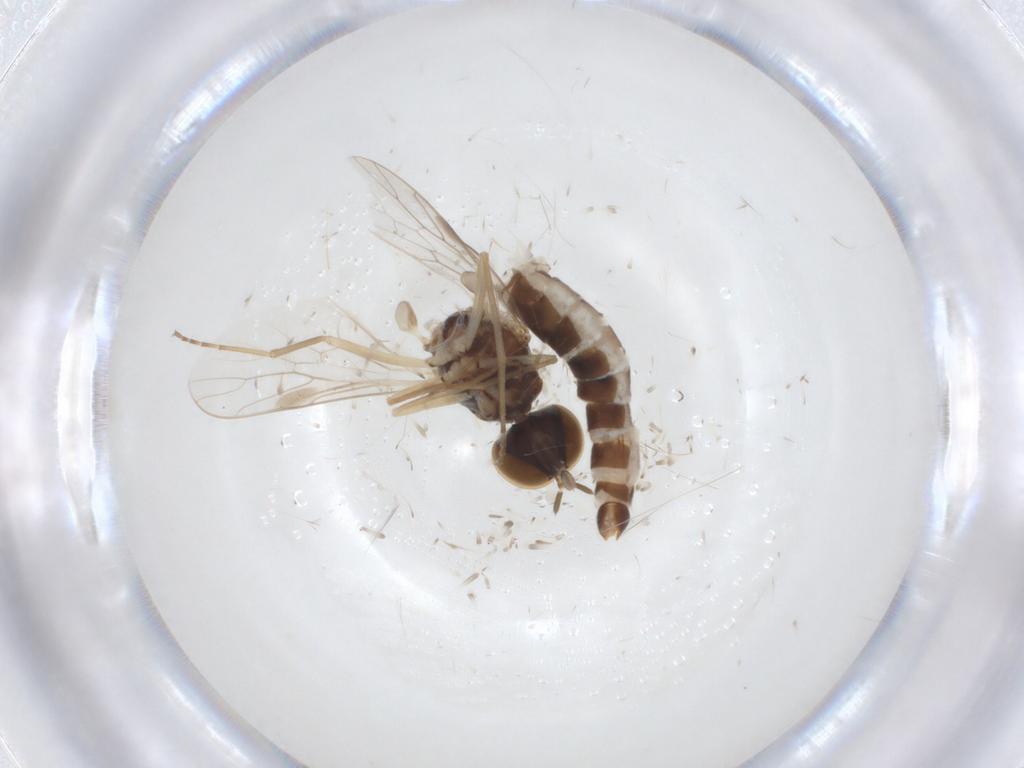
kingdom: Animalia
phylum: Arthropoda
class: Insecta
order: Diptera
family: Scenopinidae
